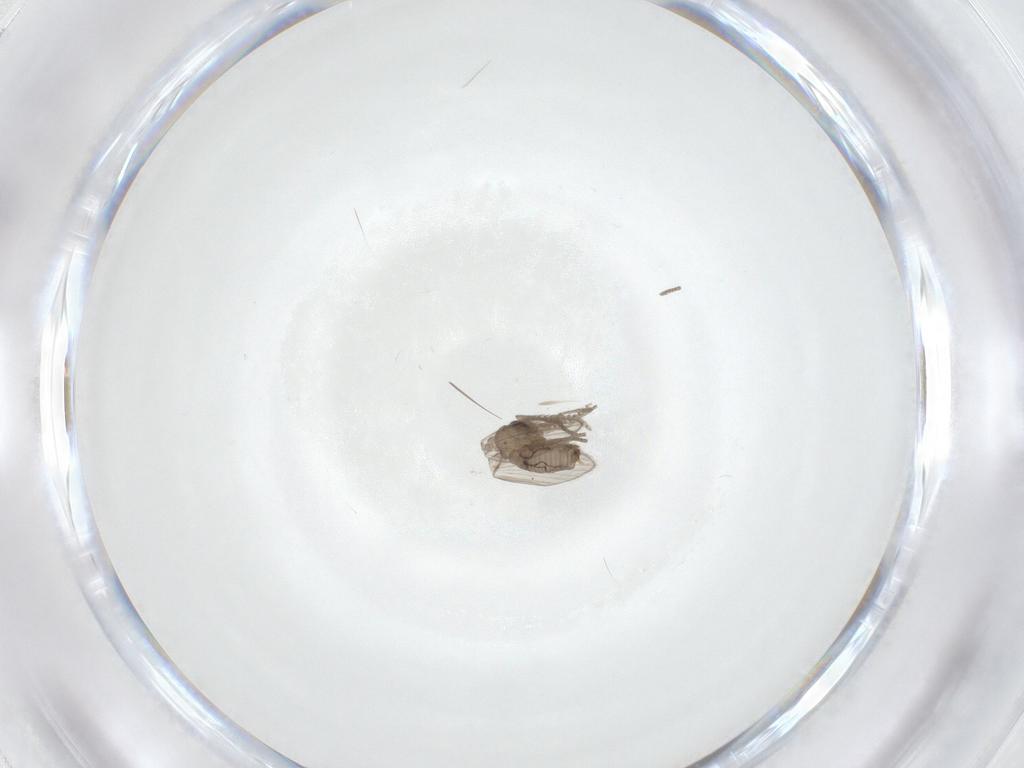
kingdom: Animalia
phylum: Arthropoda
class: Insecta
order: Diptera
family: Psychodidae
